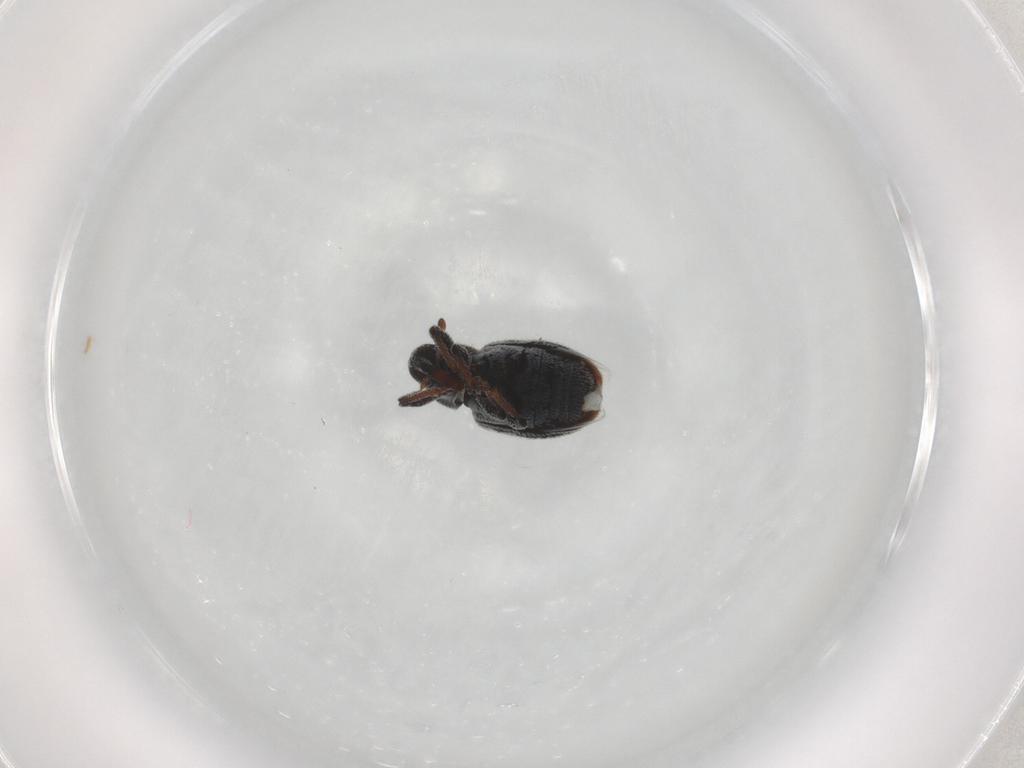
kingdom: Animalia
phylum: Arthropoda
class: Insecta
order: Coleoptera
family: Curculionidae
